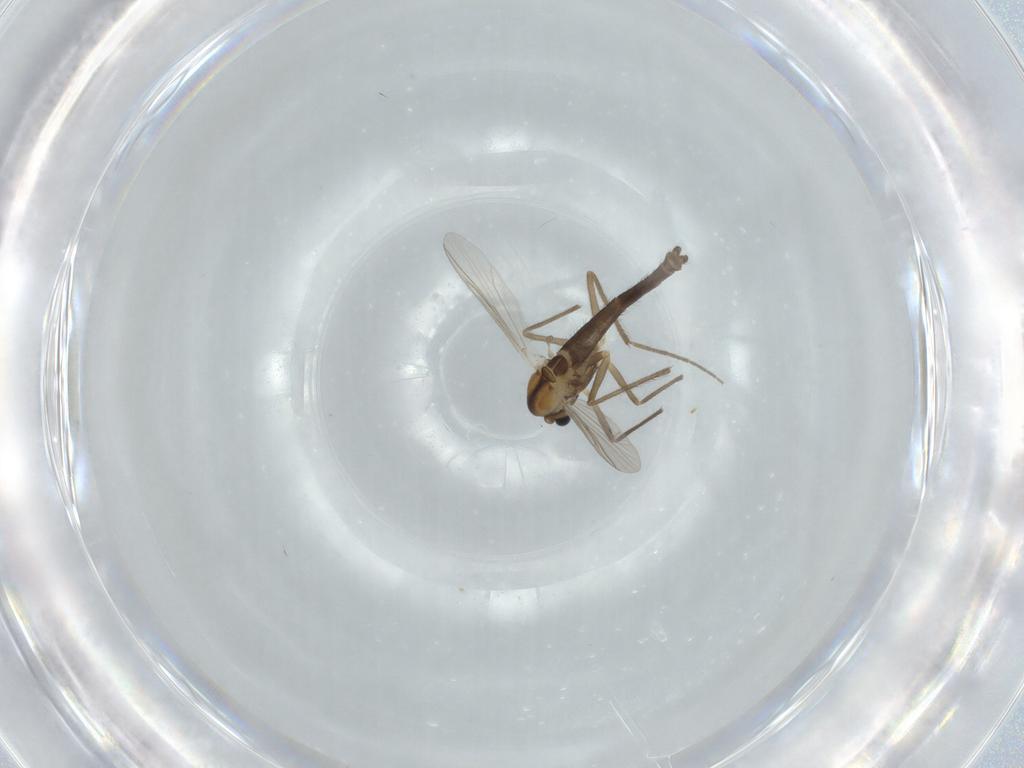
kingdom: Animalia
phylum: Arthropoda
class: Insecta
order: Diptera
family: Chironomidae
